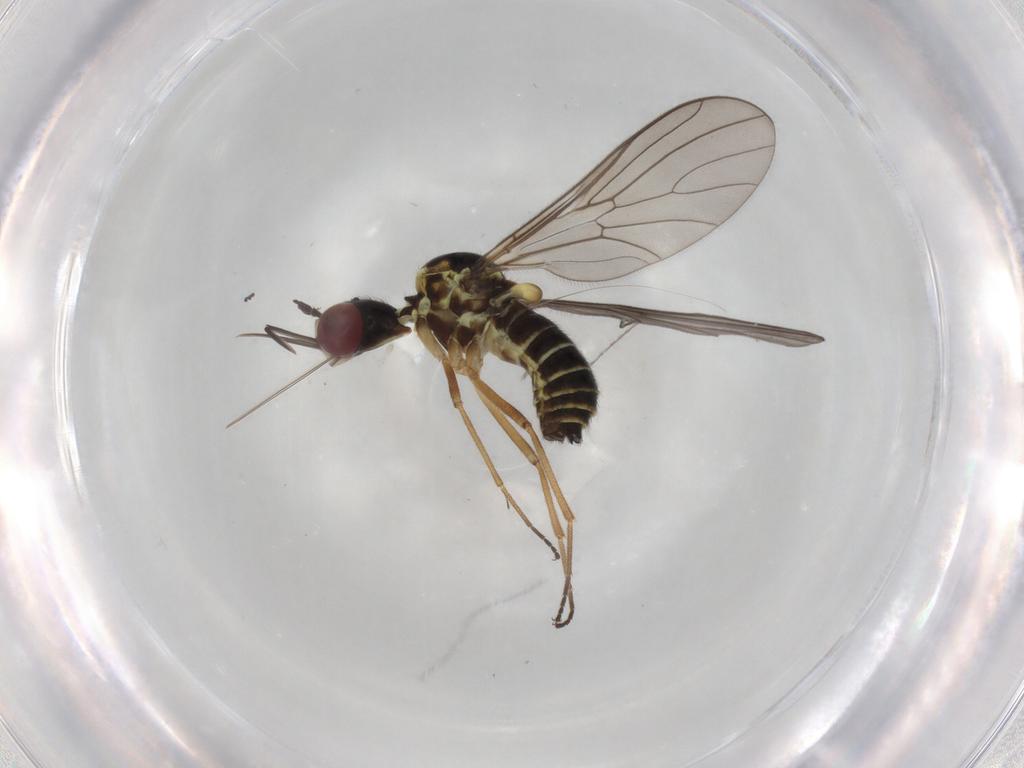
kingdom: Animalia
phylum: Arthropoda
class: Insecta
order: Diptera
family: Mythicomyiidae
